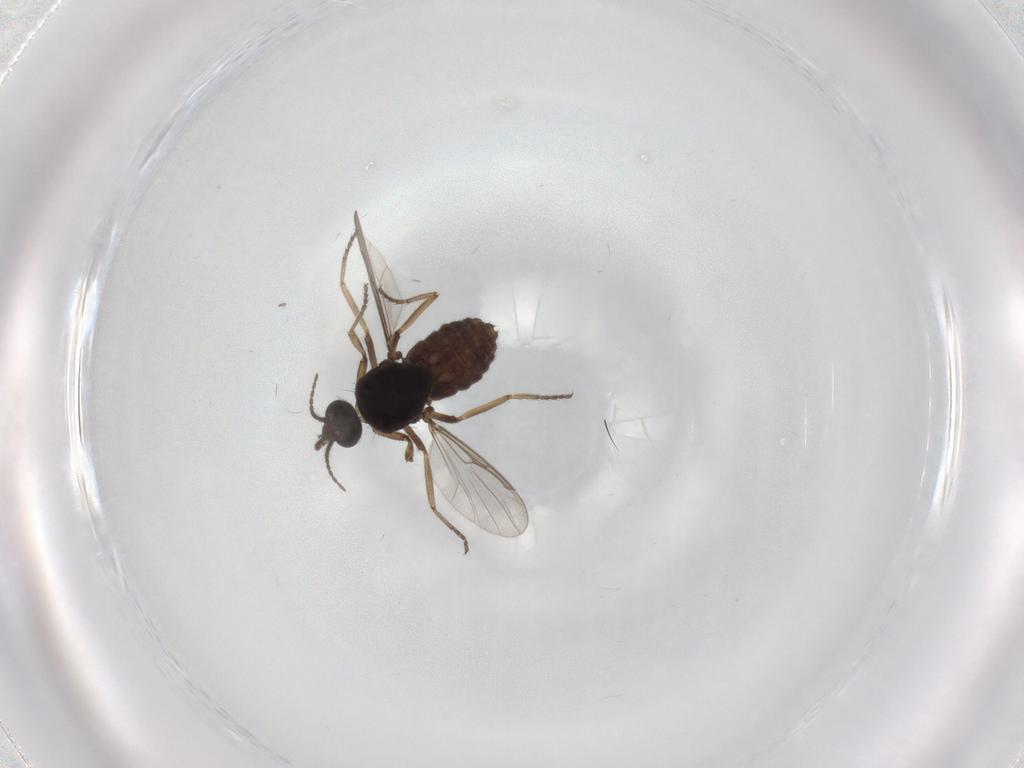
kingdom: Animalia
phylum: Arthropoda
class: Insecta
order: Diptera
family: Ceratopogonidae
